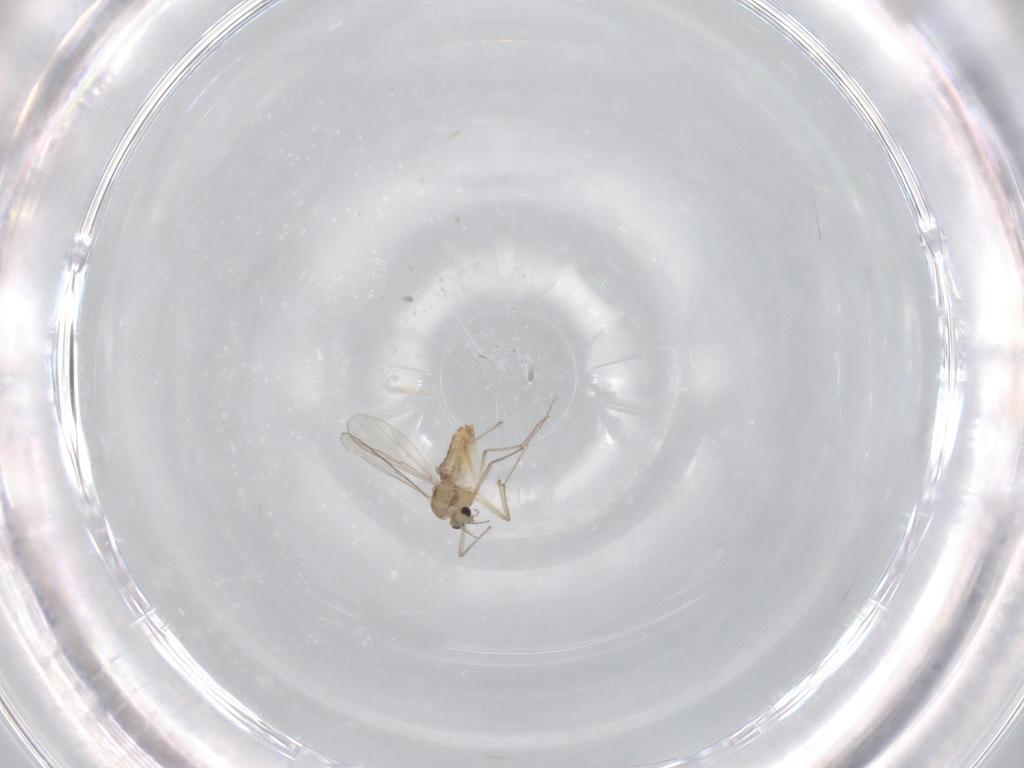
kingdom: Animalia
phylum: Arthropoda
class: Insecta
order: Diptera
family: Chironomidae
